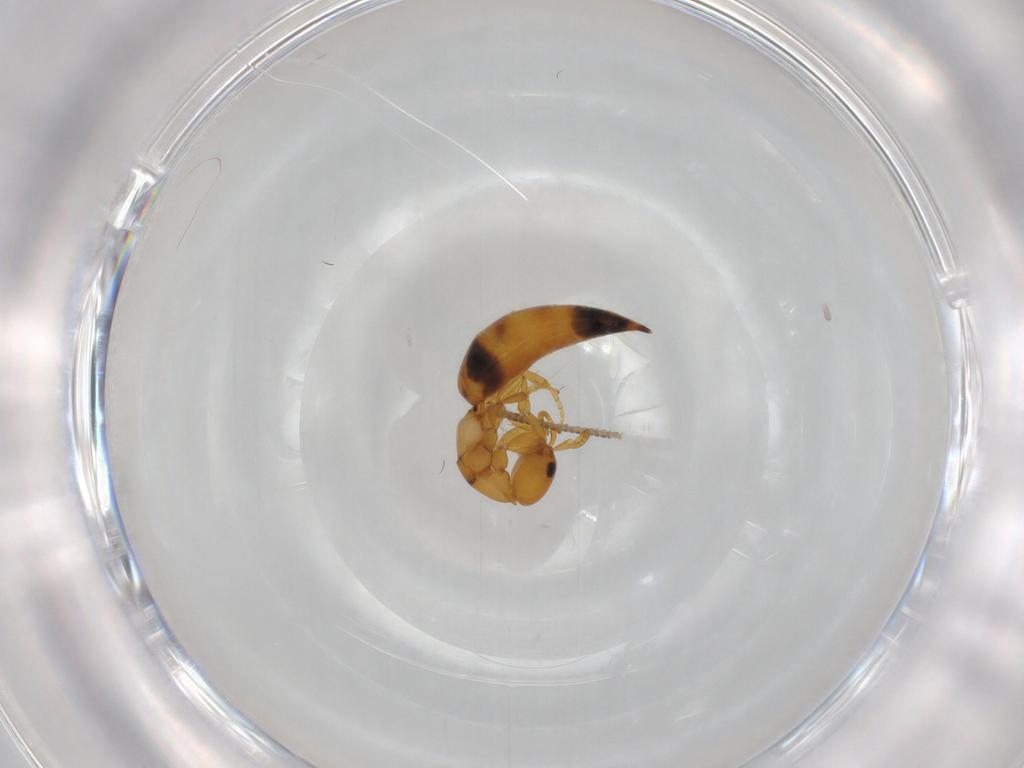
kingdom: Animalia
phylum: Arthropoda
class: Insecta
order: Hymenoptera
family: Bethylidae
